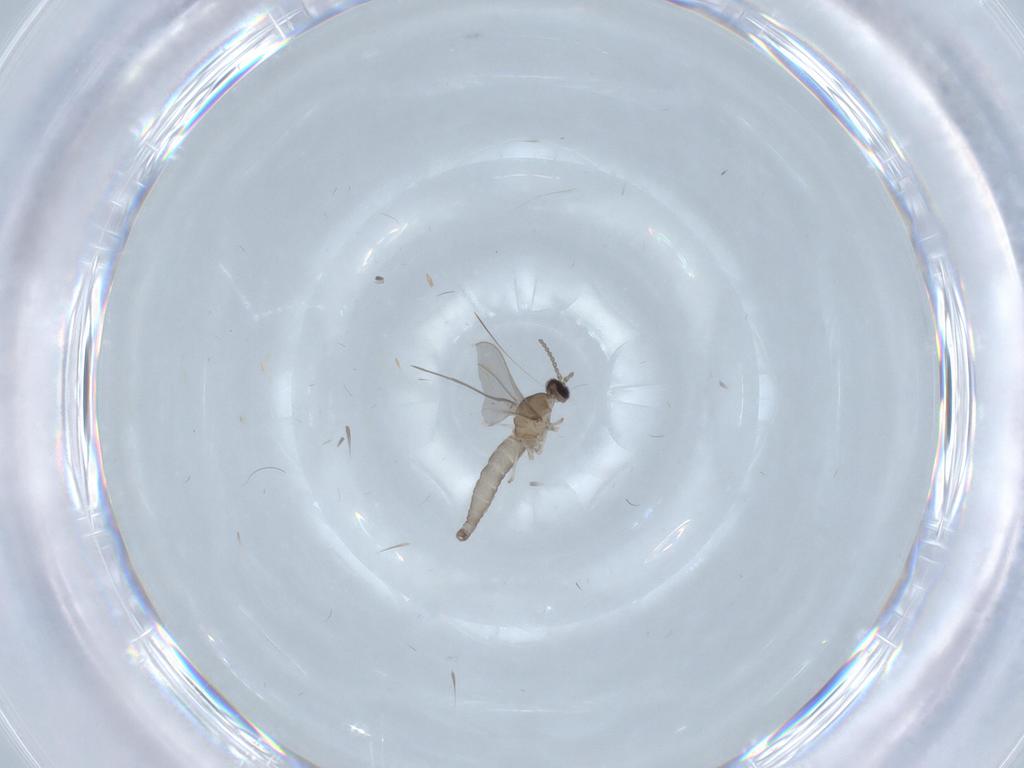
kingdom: Animalia
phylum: Arthropoda
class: Insecta
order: Diptera
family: Cecidomyiidae
